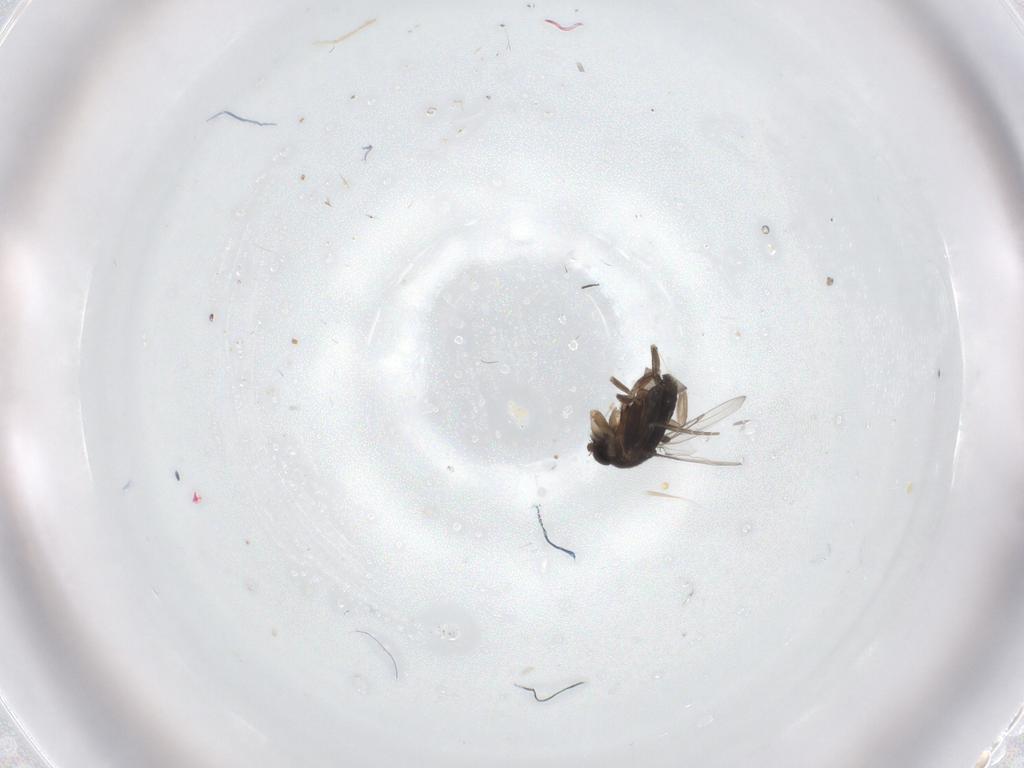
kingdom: Animalia
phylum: Arthropoda
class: Insecta
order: Diptera
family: Phoridae
